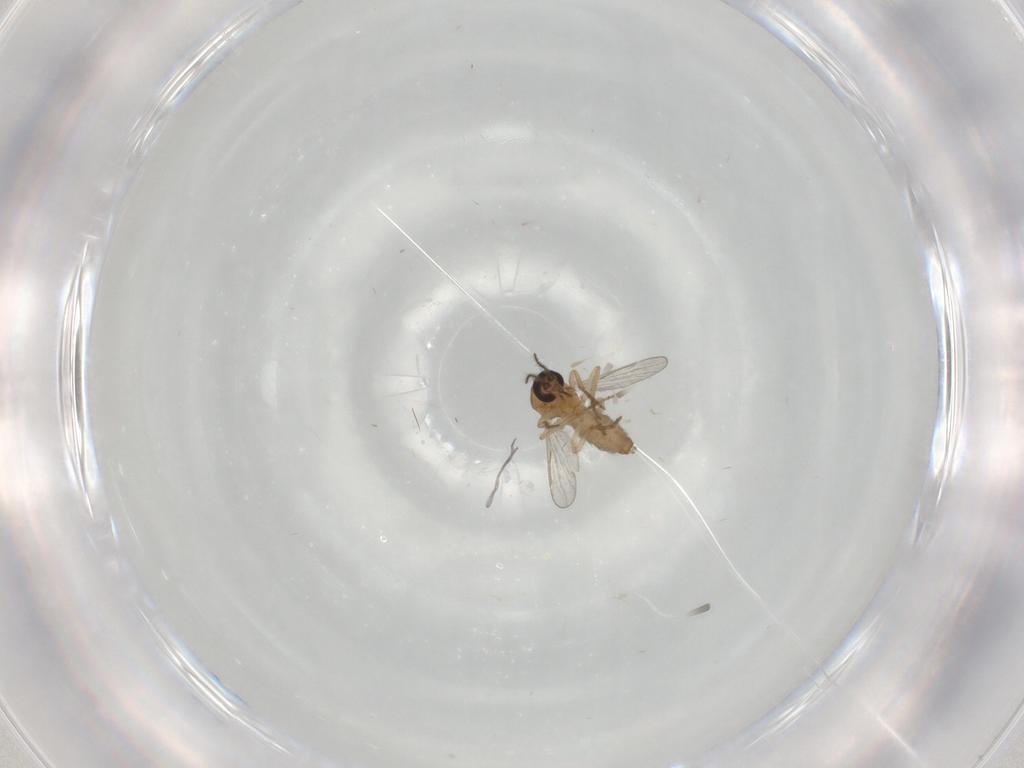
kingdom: Animalia
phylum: Arthropoda
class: Insecta
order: Diptera
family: Ceratopogonidae
